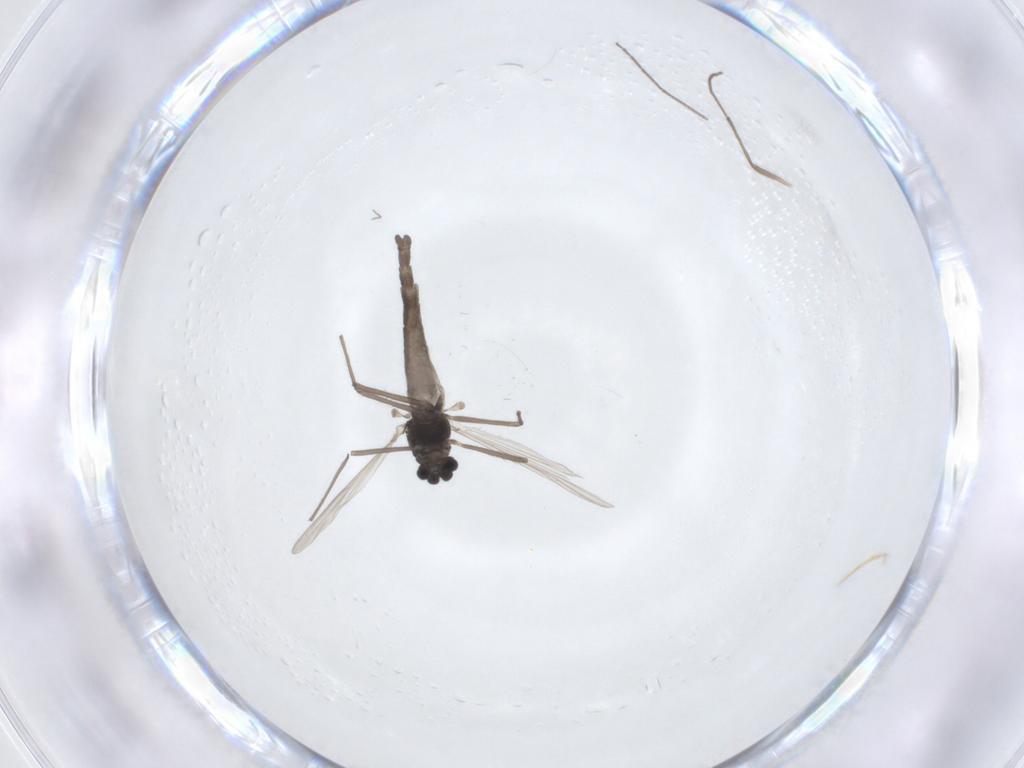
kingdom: Animalia
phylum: Arthropoda
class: Insecta
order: Diptera
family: Chironomidae
